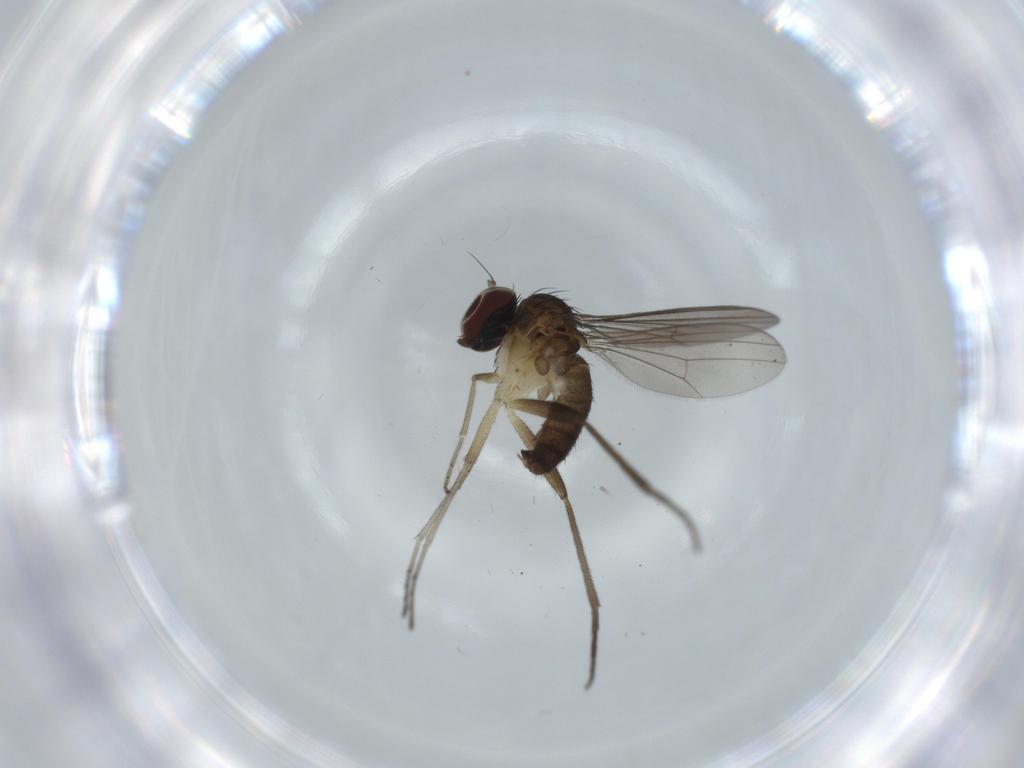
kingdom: Animalia
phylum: Arthropoda
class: Insecta
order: Diptera
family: Dolichopodidae
